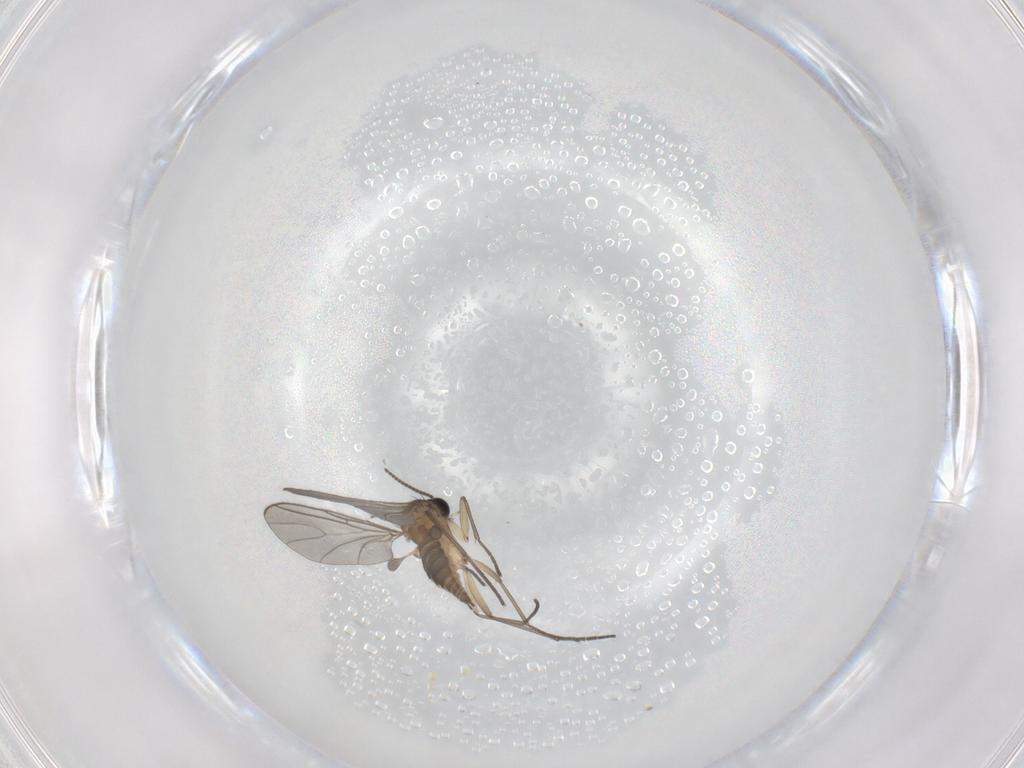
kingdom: Animalia
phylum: Arthropoda
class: Insecta
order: Diptera
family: Sciaridae
